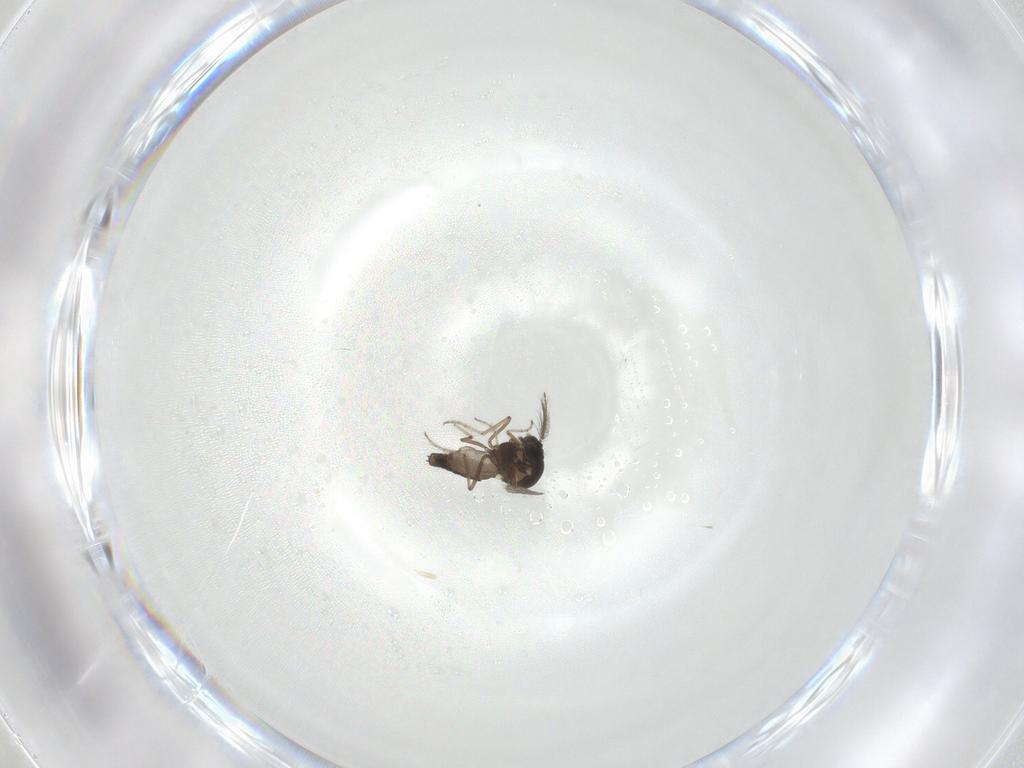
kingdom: Animalia
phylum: Arthropoda
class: Insecta
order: Diptera
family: Ceratopogonidae
